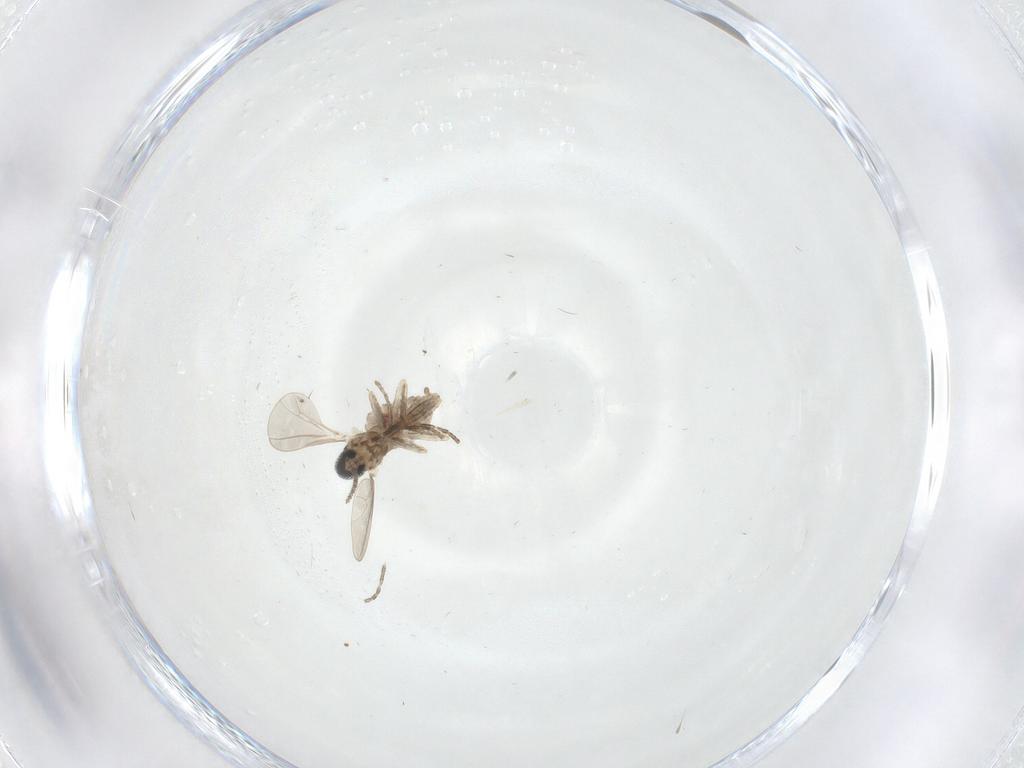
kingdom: Animalia
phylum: Arthropoda
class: Insecta
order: Diptera
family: Cecidomyiidae
